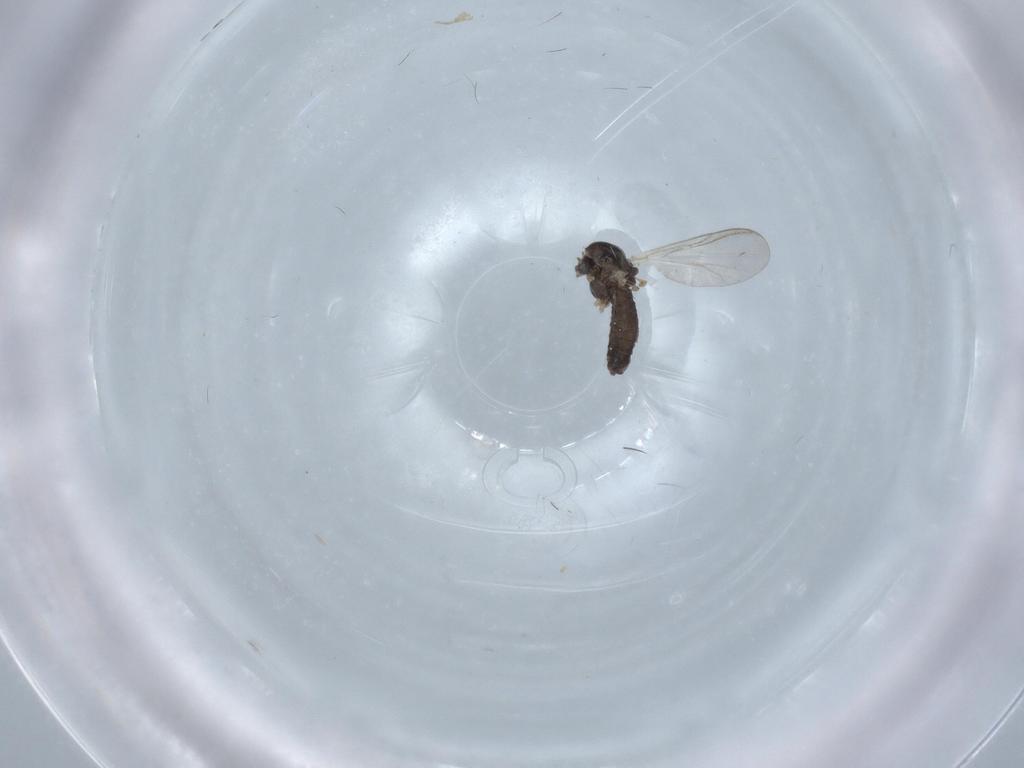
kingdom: Animalia
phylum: Arthropoda
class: Insecta
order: Diptera
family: Chironomidae
